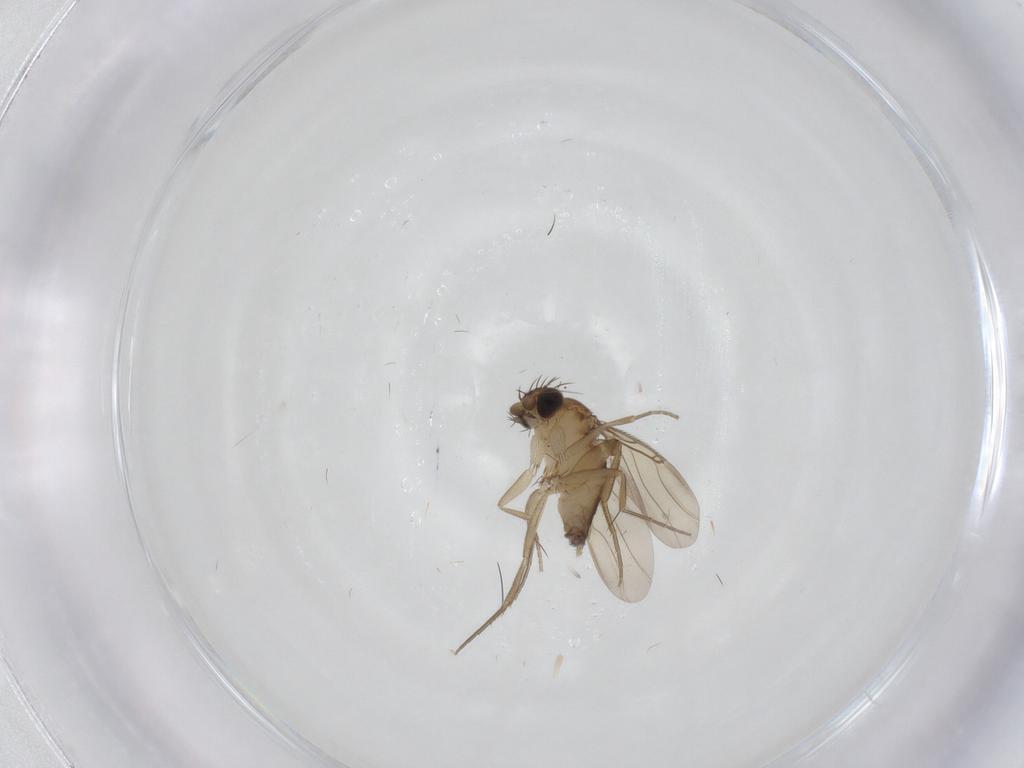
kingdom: Animalia
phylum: Arthropoda
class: Insecta
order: Diptera
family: Phoridae
